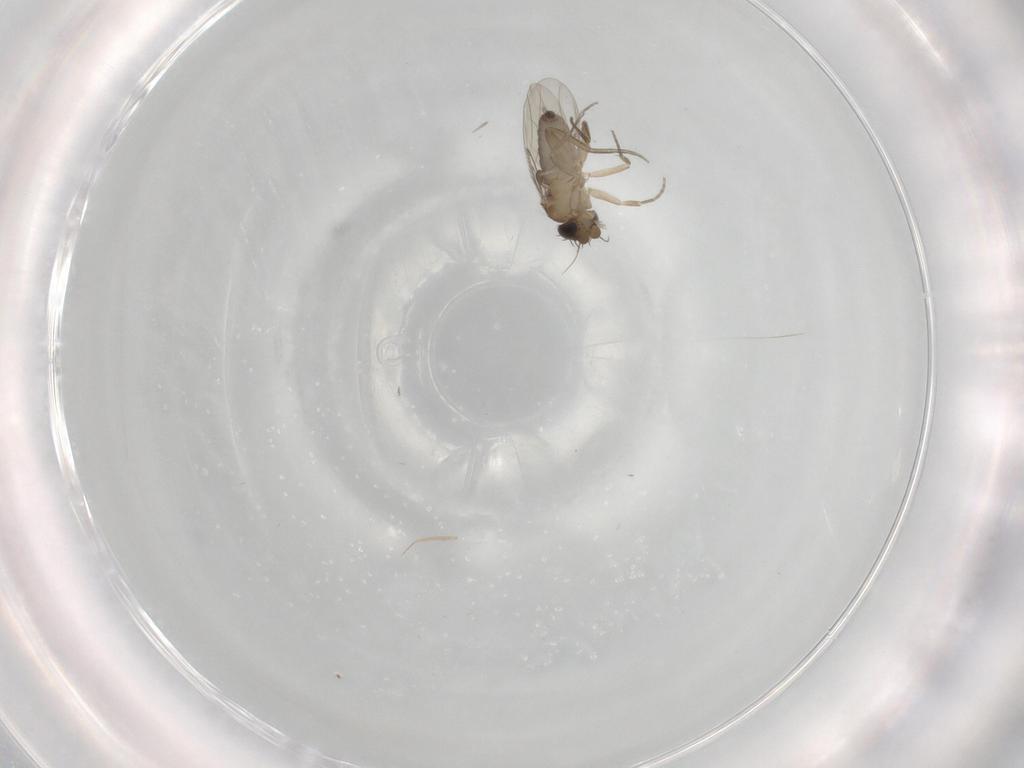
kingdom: Animalia
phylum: Arthropoda
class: Insecta
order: Diptera
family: Phoridae
